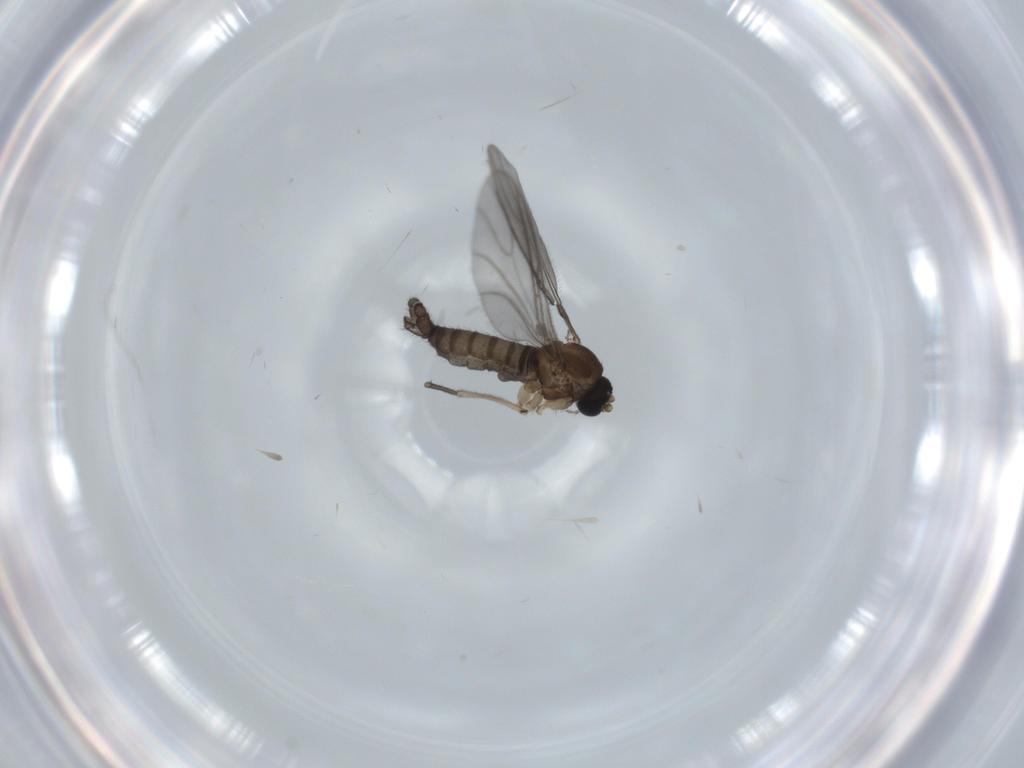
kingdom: Animalia
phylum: Arthropoda
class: Insecta
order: Diptera
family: Sciaridae
